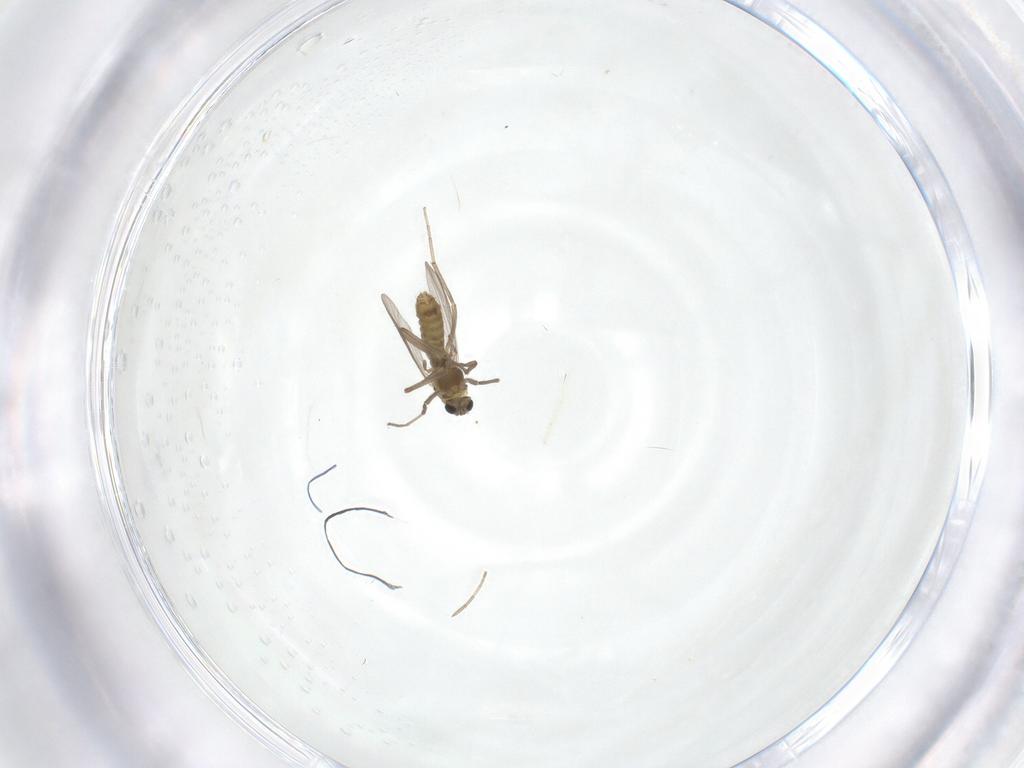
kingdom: Animalia
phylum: Arthropoda
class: Insecta
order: Diptera
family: Chironomidae
